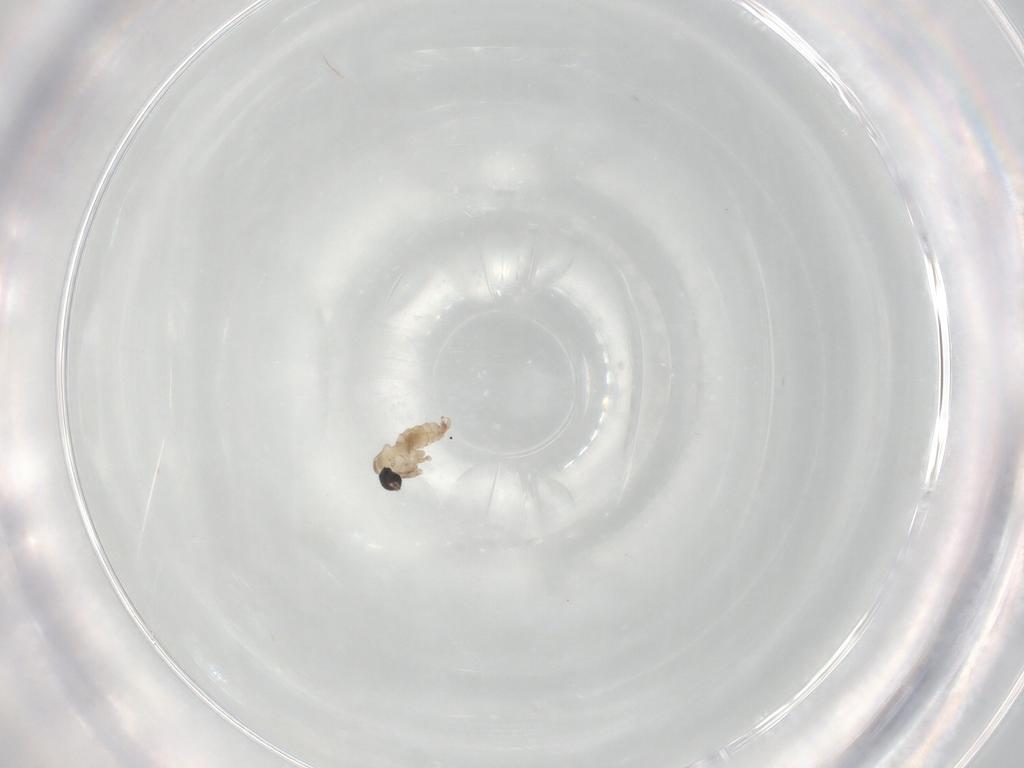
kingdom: Animalia
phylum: Arthropoda
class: Insecta
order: Diptera
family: Cecidomyiidae
